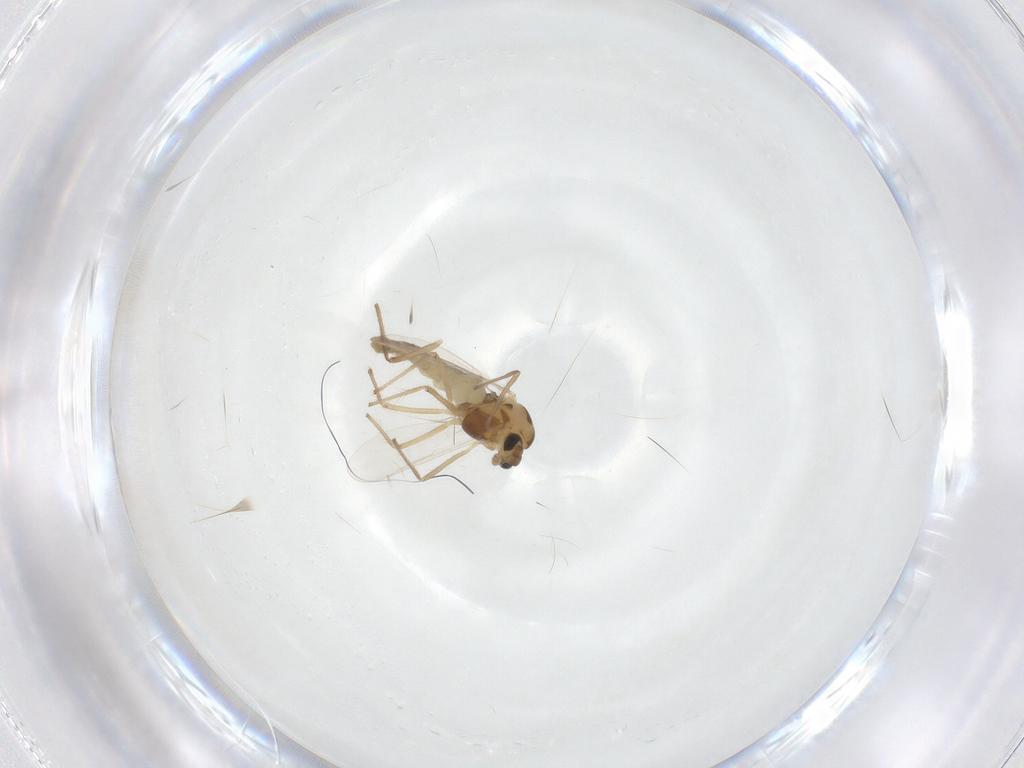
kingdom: Animalia
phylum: Arthropoda
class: Insecta
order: Diptera
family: Chironomidae
